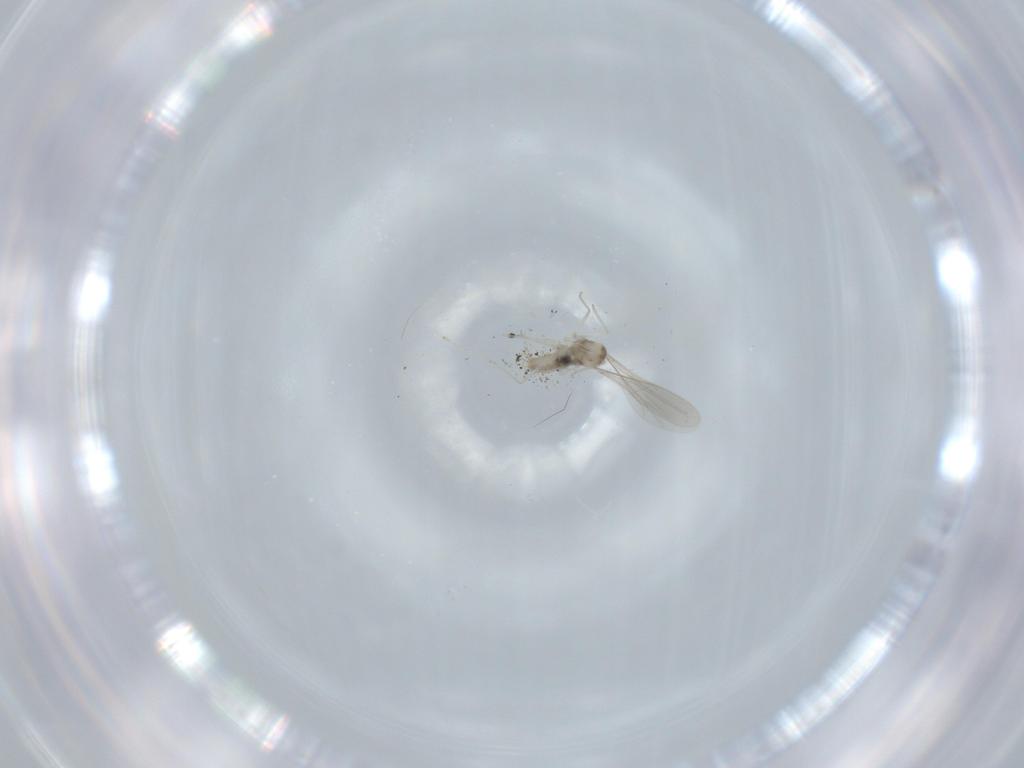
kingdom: Animalia
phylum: Arthropoda
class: Insecta
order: Diptera
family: Cecidomyiidae
